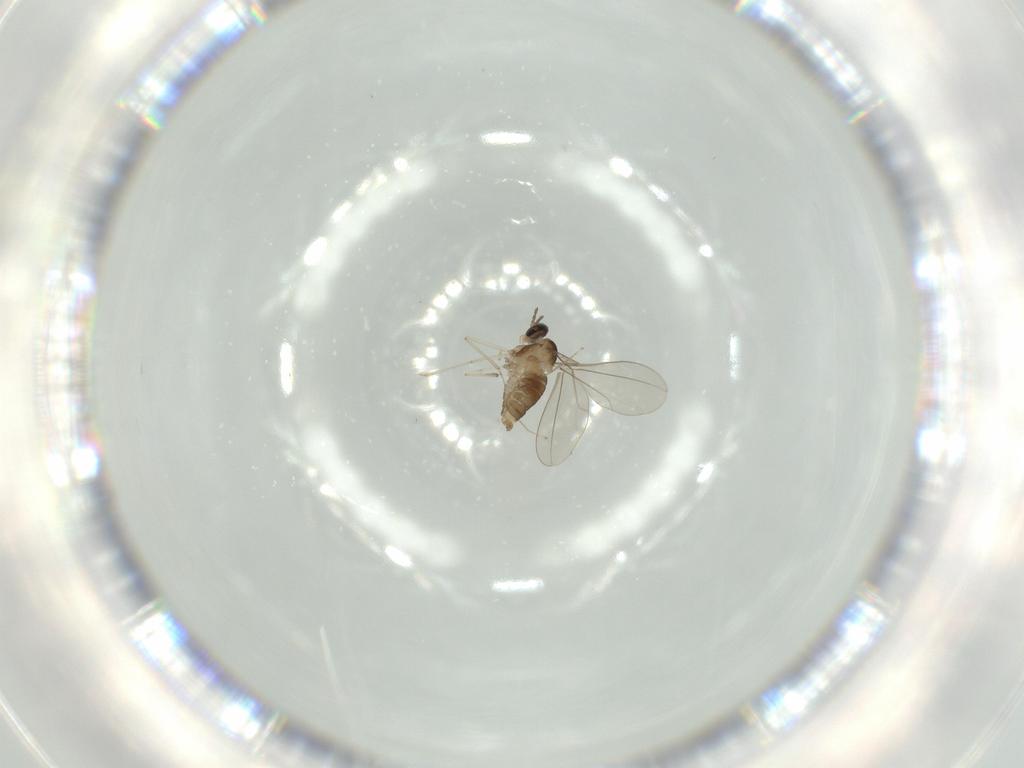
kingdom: Animalia
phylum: Arthropoda
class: Insecta
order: Diptera
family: Cecidomyiidae
